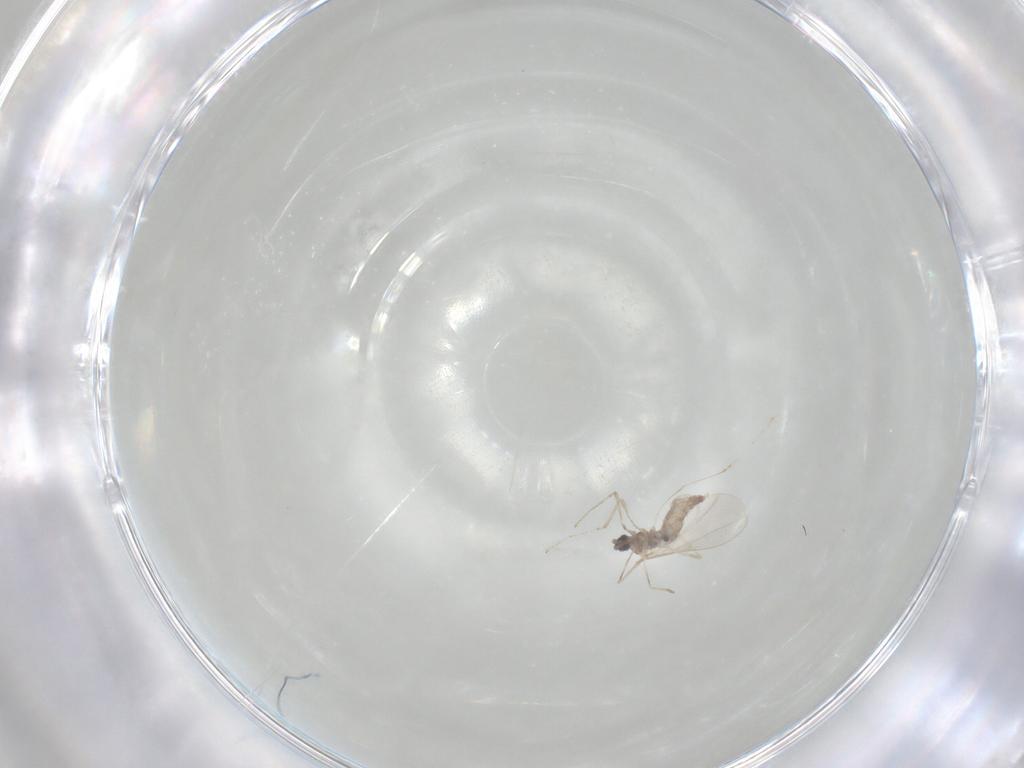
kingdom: Animalia
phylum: Arthropoda
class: Insecta
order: Diptera
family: Cecidomyiidae
